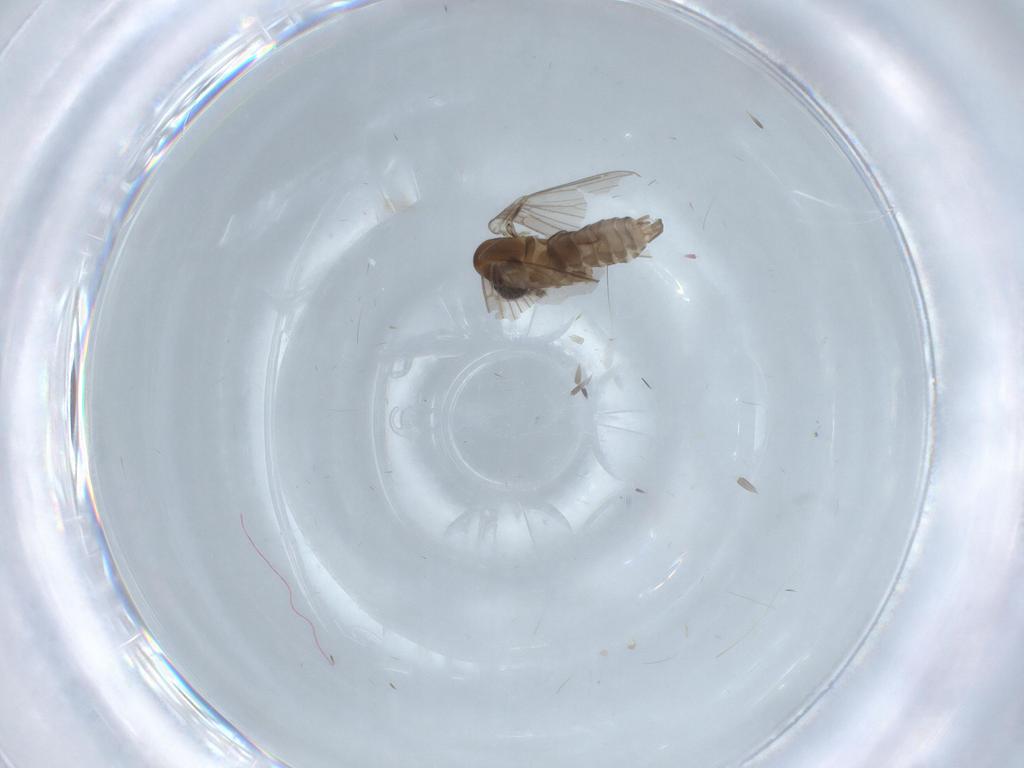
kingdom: Animalia
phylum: Arthropoda
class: Insecta
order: Diptera
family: Psychodidae
